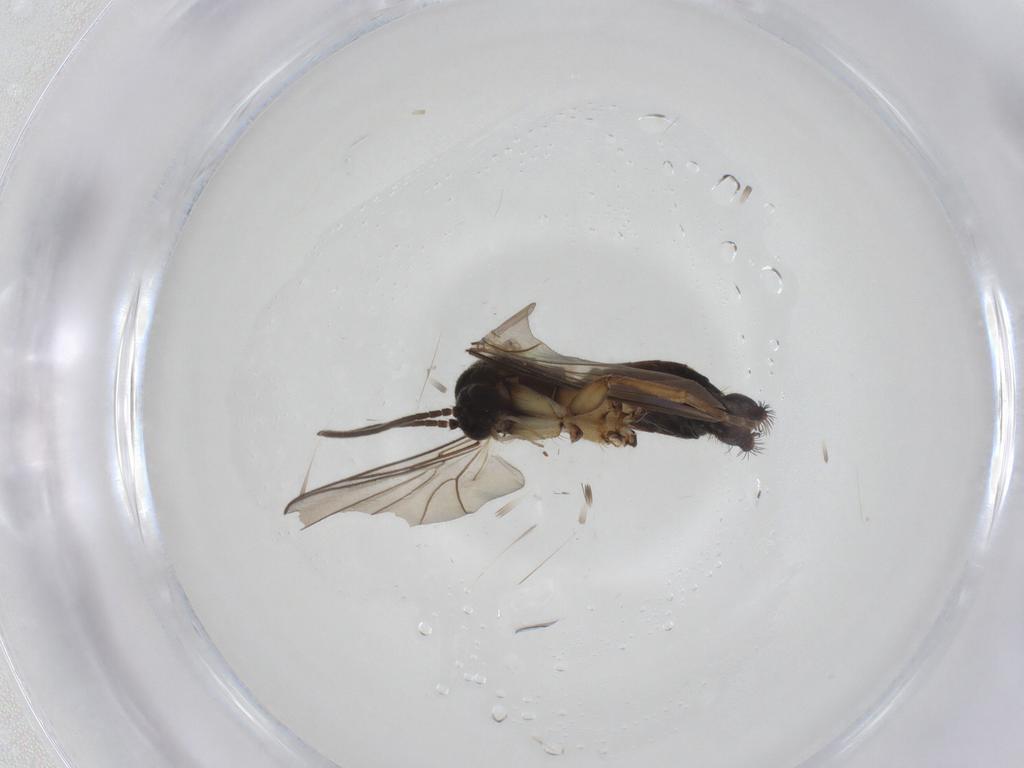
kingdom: Animalia
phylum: Arthropoda
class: Insecta
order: Diptera
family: Mycetophilidae
